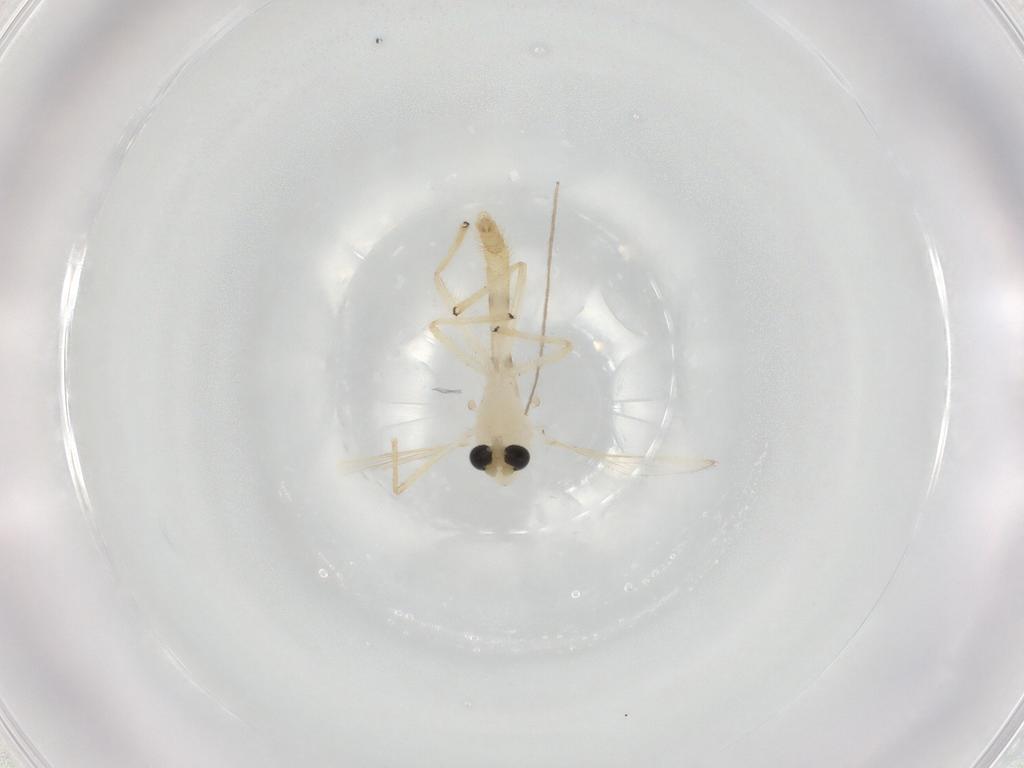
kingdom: Animalia
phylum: Arthropoda
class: Insecta
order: Diptera
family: Chironomidae
